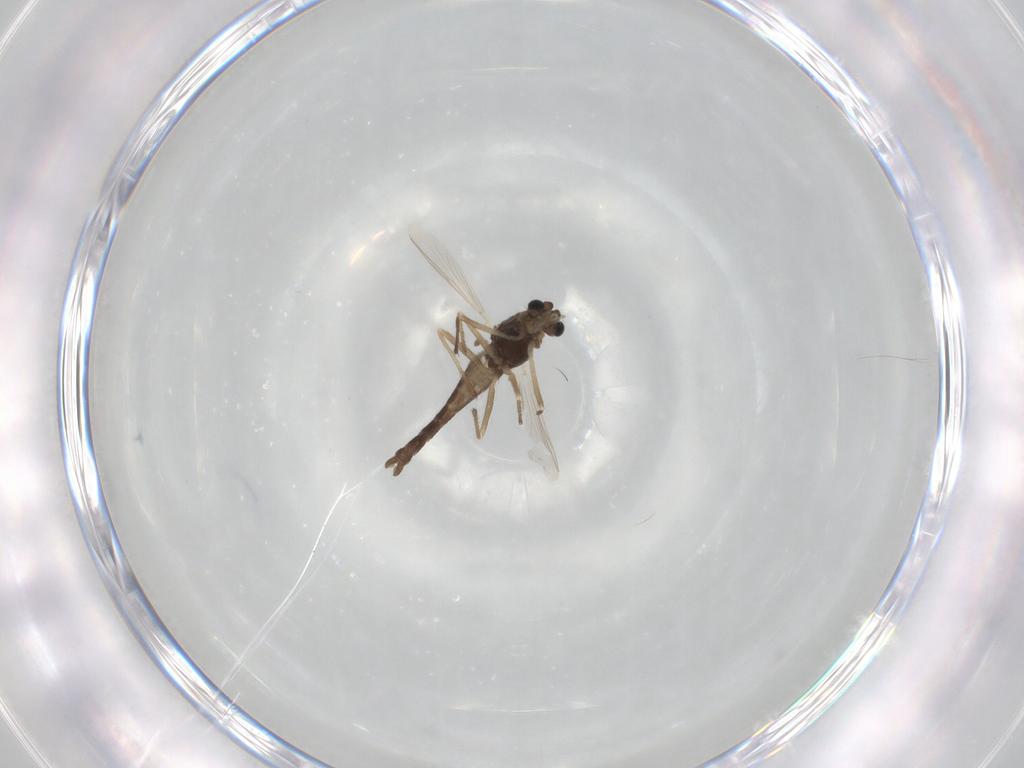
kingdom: Animalia
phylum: Arthropoda
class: Insecta
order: Diptera
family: Chironomidae
